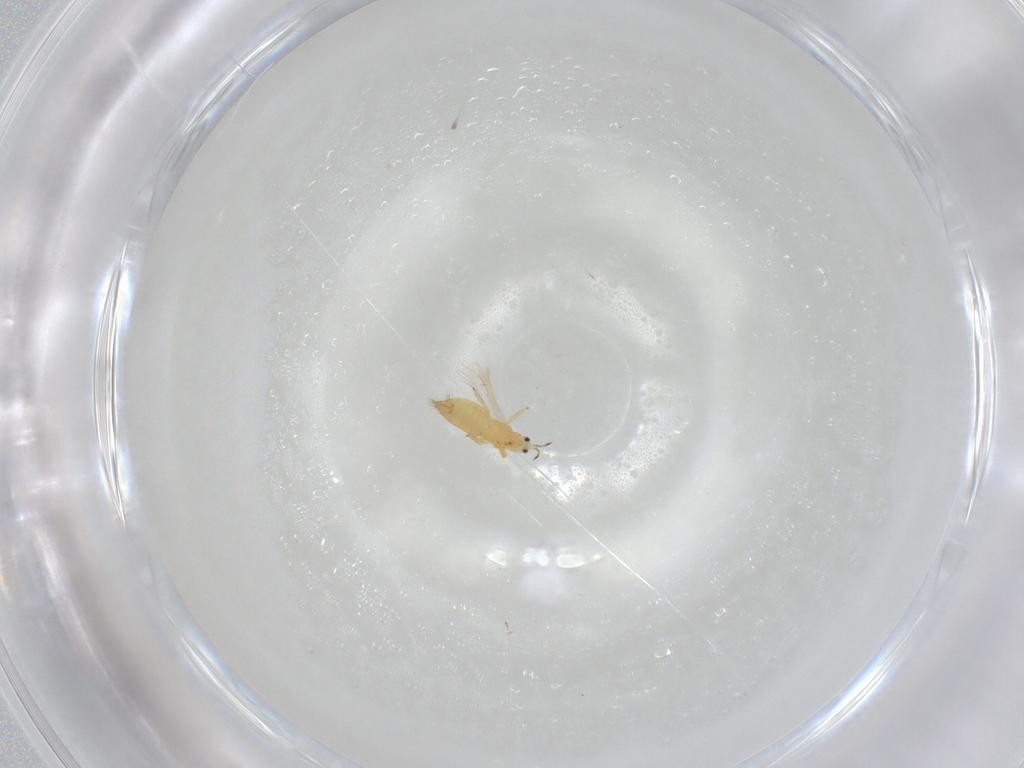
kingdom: Animalia
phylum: Arthropoda
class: Insecta
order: Thysanoptera
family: Thripidae
